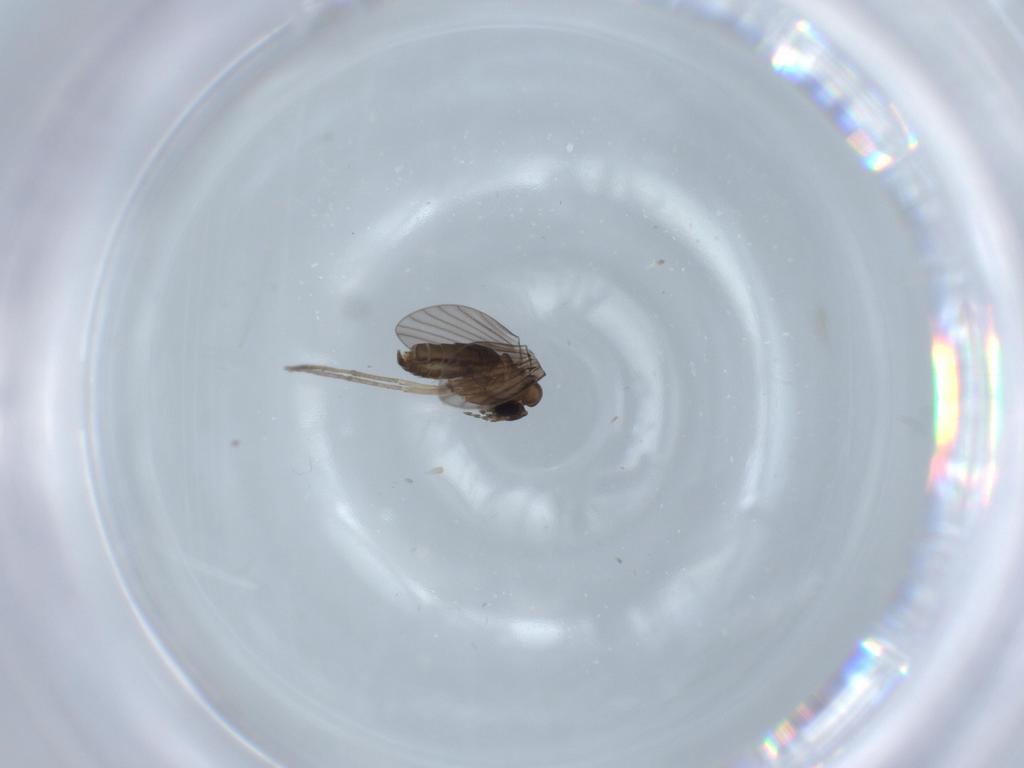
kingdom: Animalia
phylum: Arthropoda
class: Insecta
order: Diptera
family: Psychodidae
